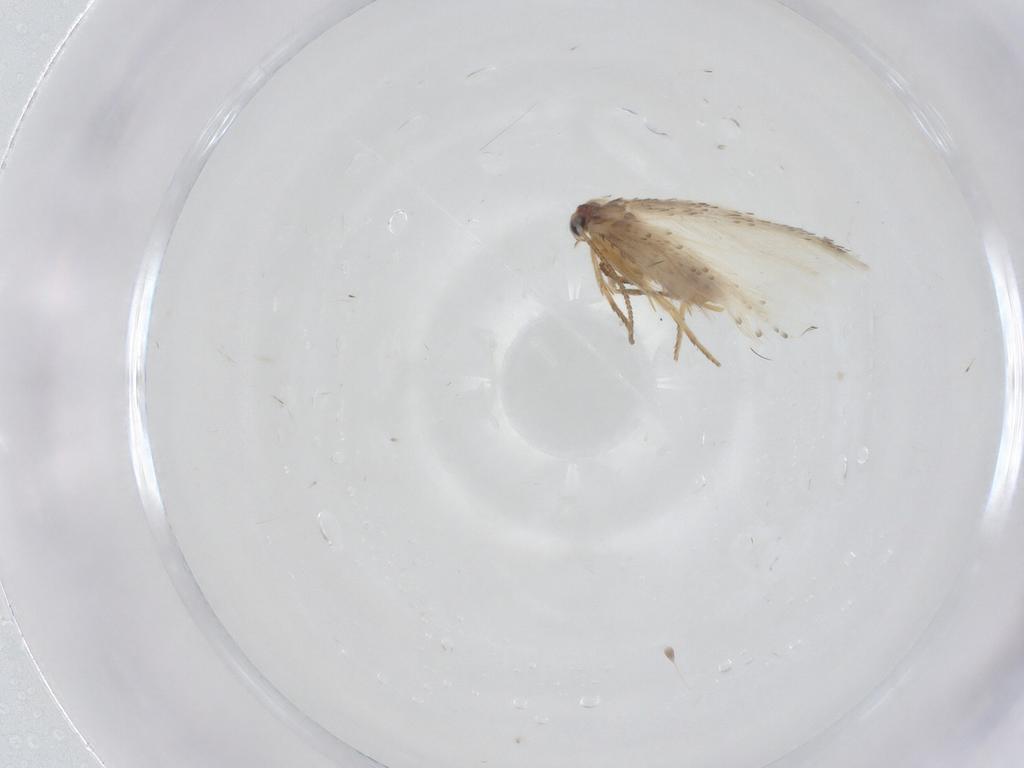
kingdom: Animalia
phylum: Arthropoda
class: Insecta
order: Lepidoptera
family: Nepticulidae
